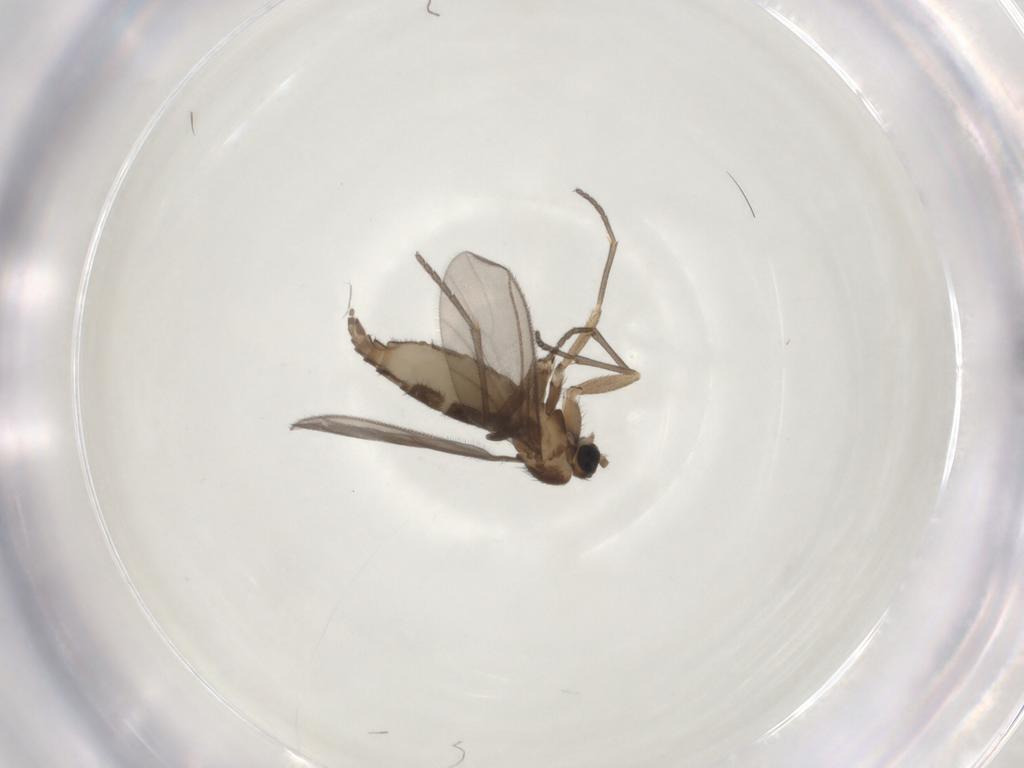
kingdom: Animalia
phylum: Arthropoda
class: Insecta
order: Diptera
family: Sciaridae
